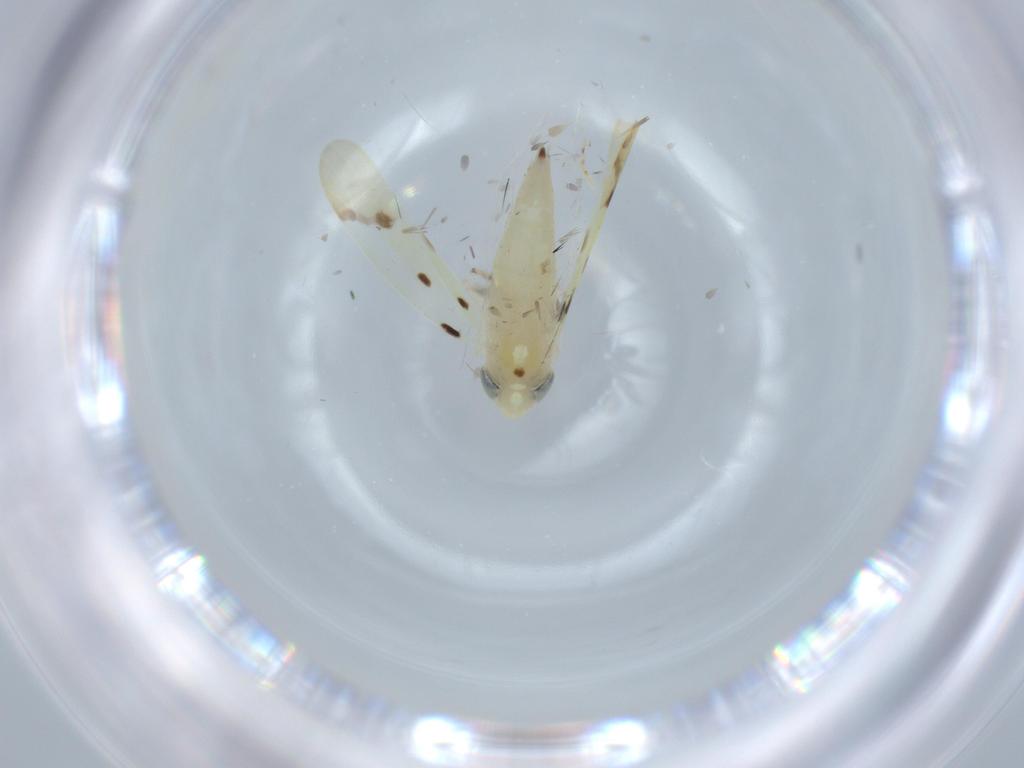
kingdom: Animalia
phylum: Arthropoda
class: Insecta
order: Hemiptera
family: Cicadellidae
